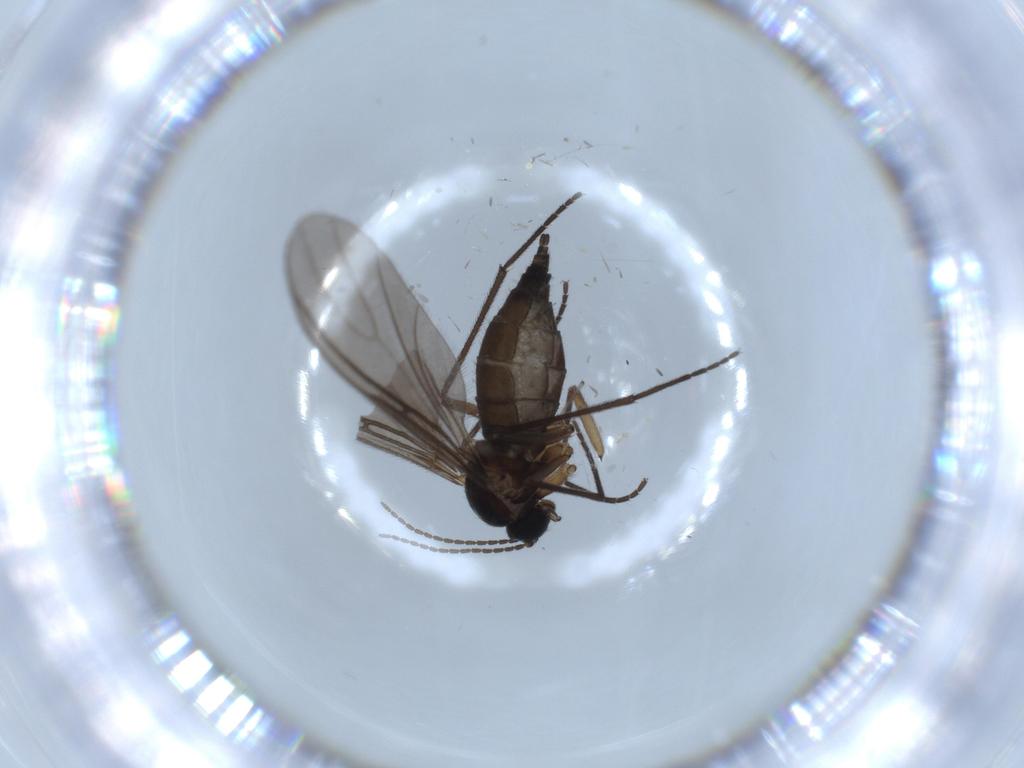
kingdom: Animalia
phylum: Arthropoda
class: Insecta
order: Diptera
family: Sciaridae
